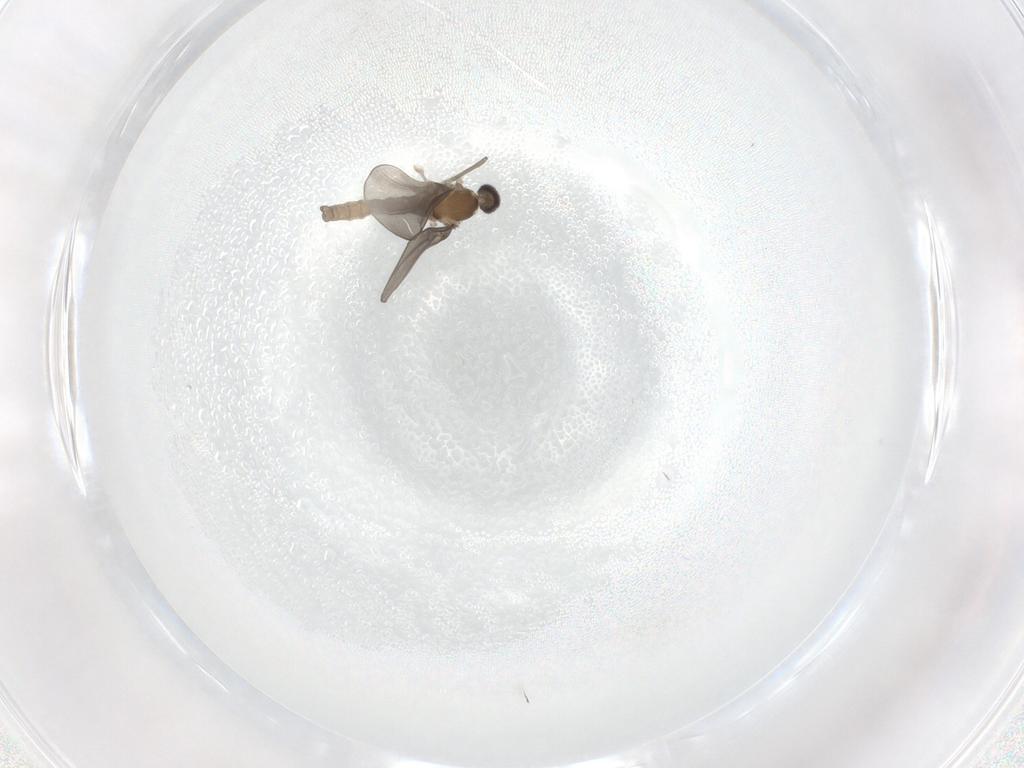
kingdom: Animalia
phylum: Arthropoda
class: Insecta
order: Diptera
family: Cecidomyiidae
